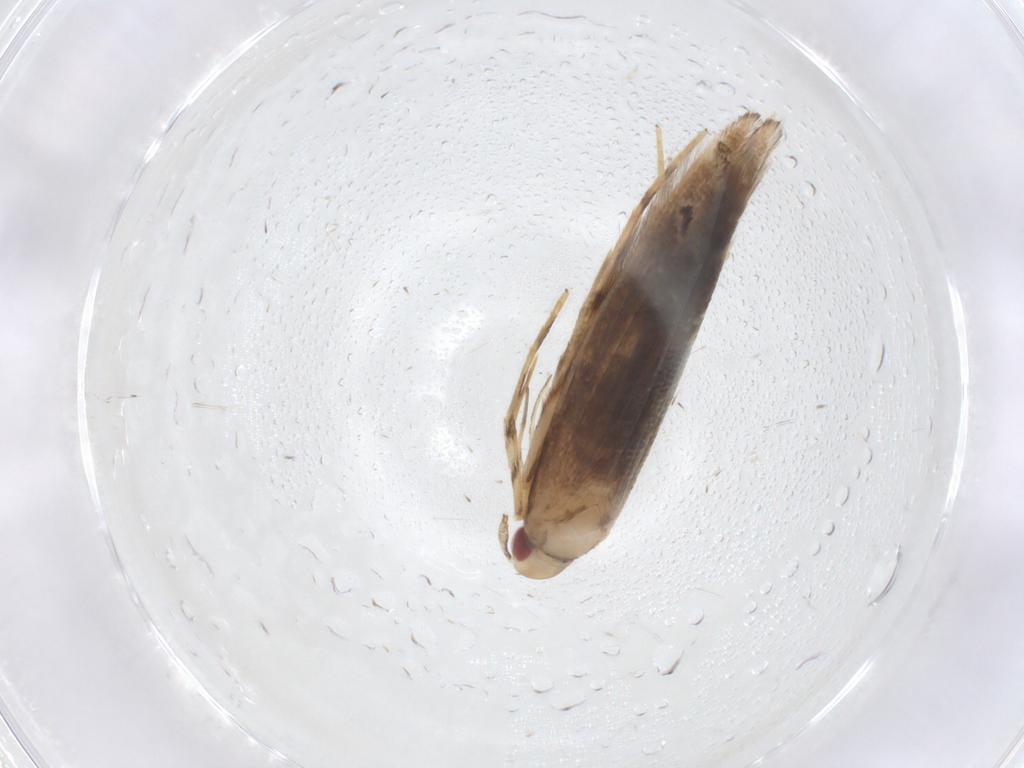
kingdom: Animalia
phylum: Arthropoda
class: Insecta
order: Lepidoptera
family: Cosmopterigidae
